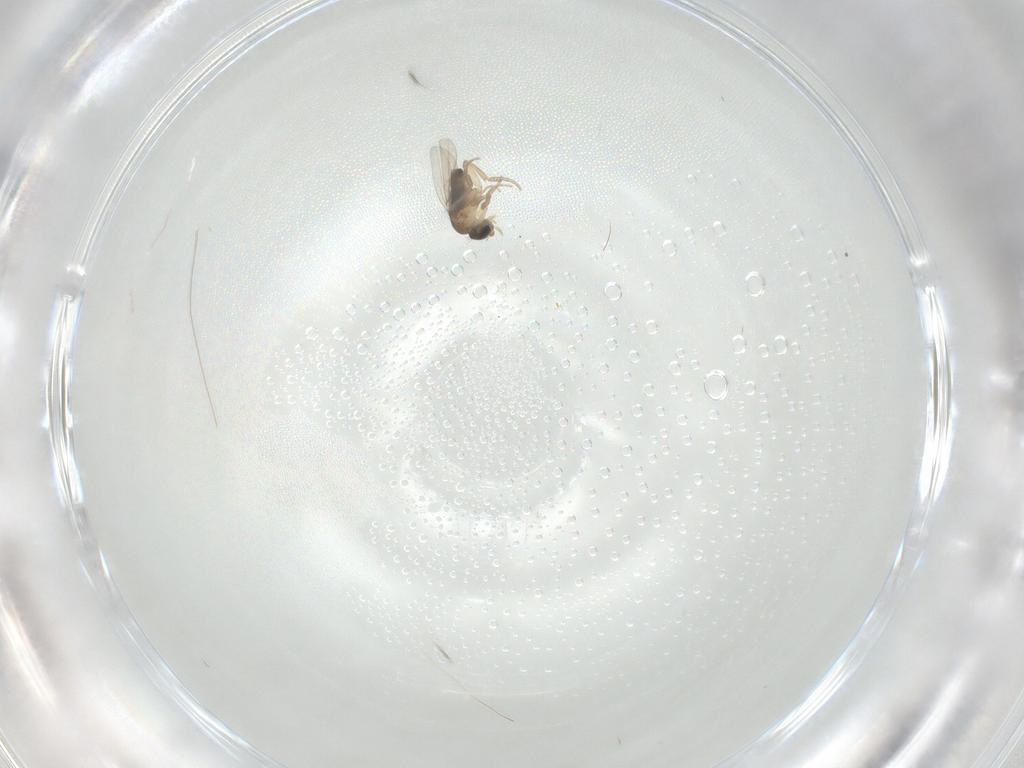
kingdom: Animalia
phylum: Arthropoda
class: Insecta
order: Diptera
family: Phoridae
